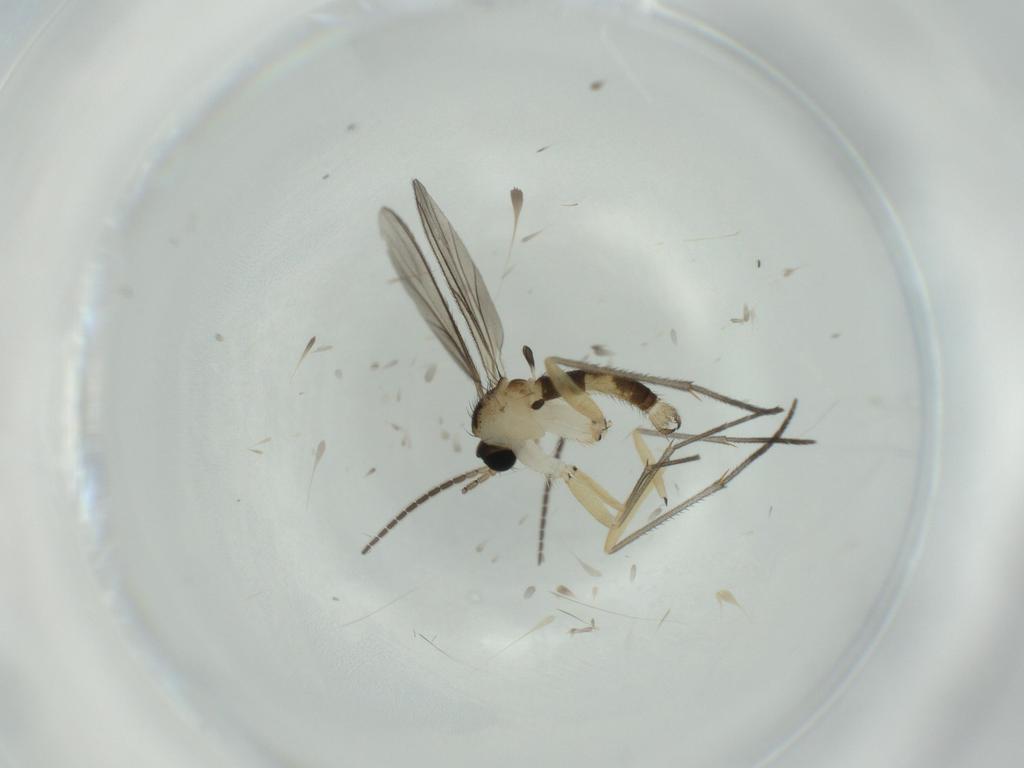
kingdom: Animalia
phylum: Arthropoda
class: Insecta
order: Diptera
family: Sciaridae
